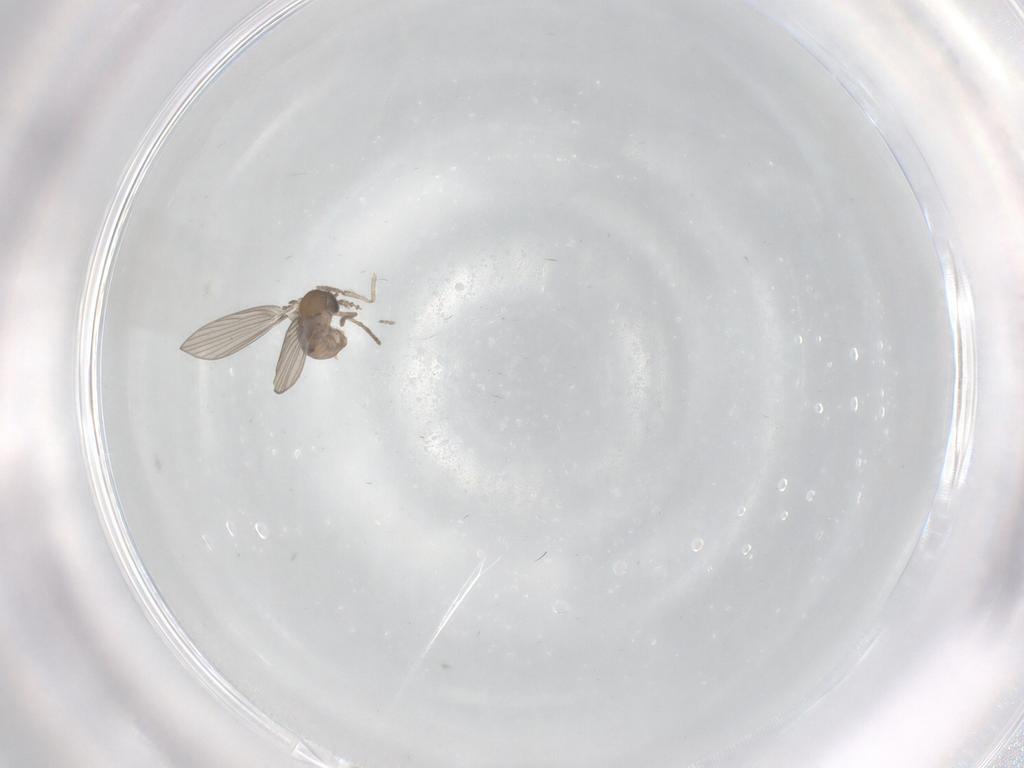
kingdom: Animalia
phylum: Arthropoda
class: Insecta
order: Diptera
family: Psychodidae
